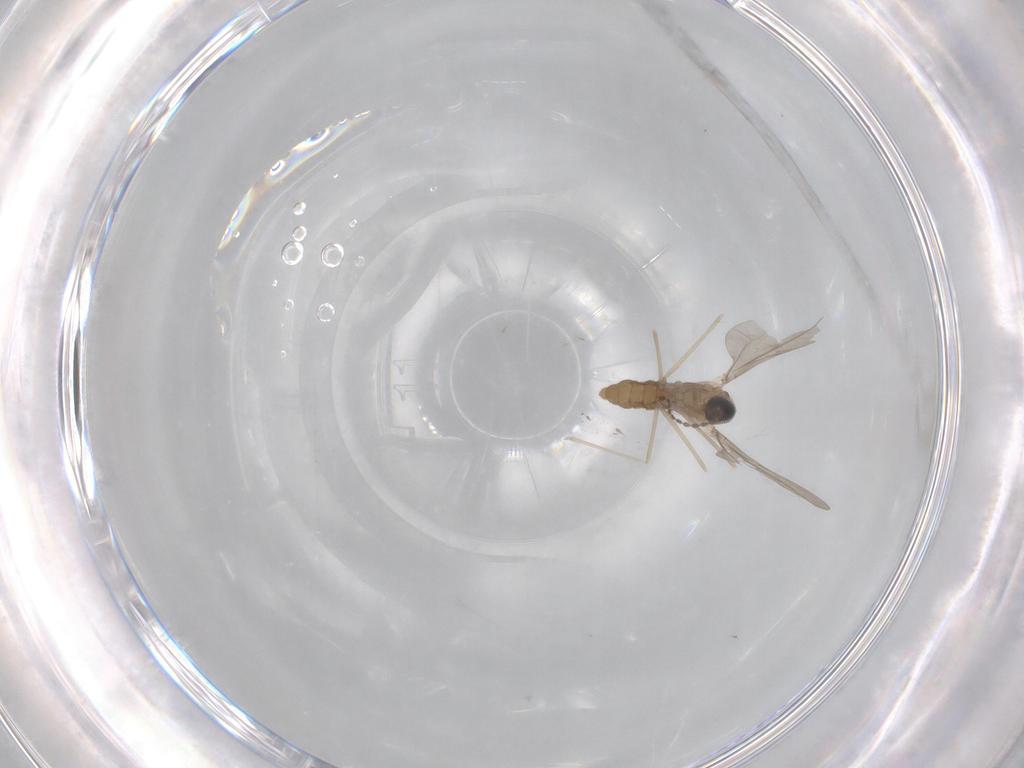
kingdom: Animalia
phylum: Arthropoda
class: Insecta
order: Diptera
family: Cecidomyiidae
